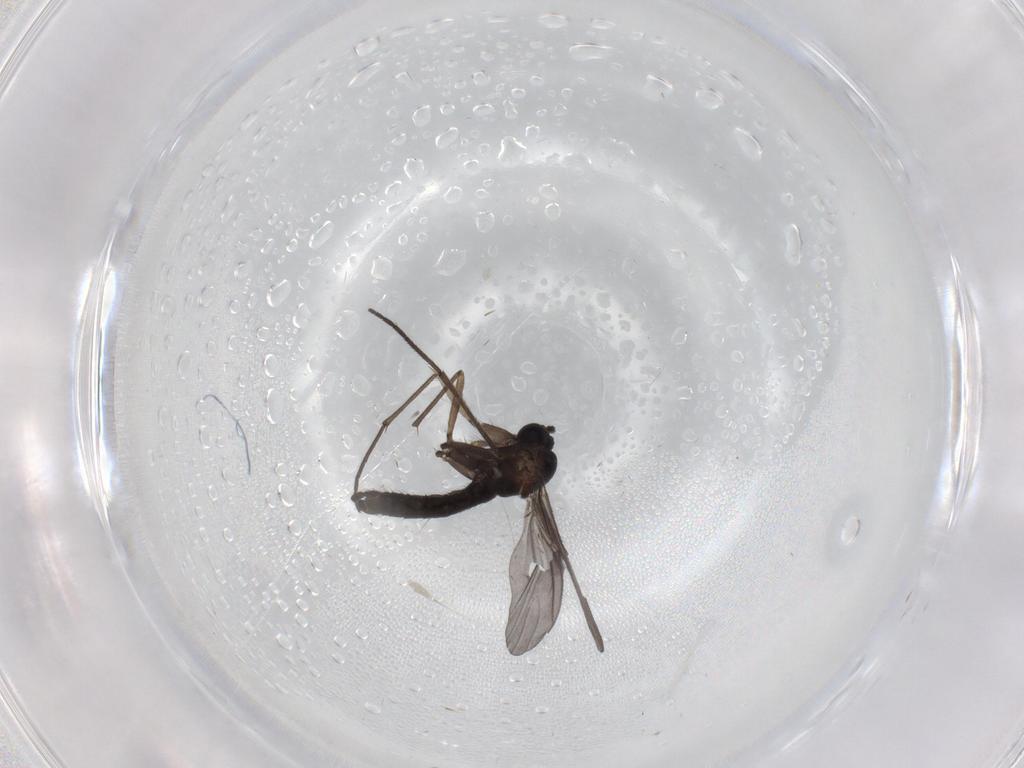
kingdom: Animalia
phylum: Arthropoda
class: Insecta
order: Diptera
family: Sciaridae
